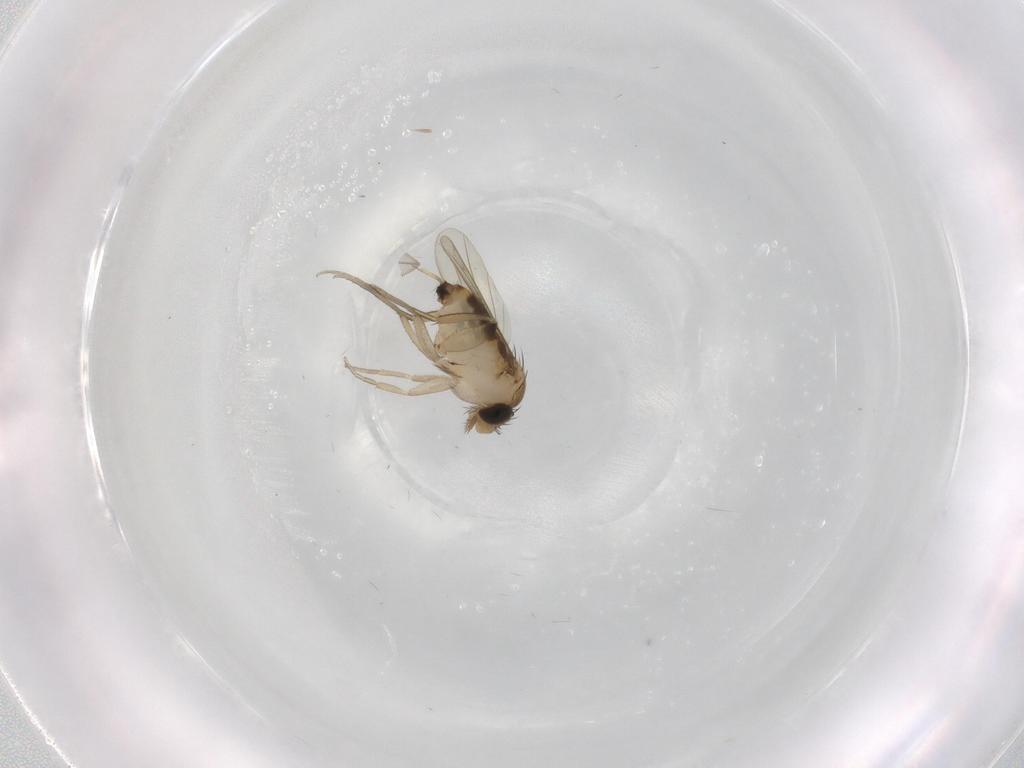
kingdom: Animalia
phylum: Arthropoda
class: Insecta
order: Diptera
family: Phoridae
